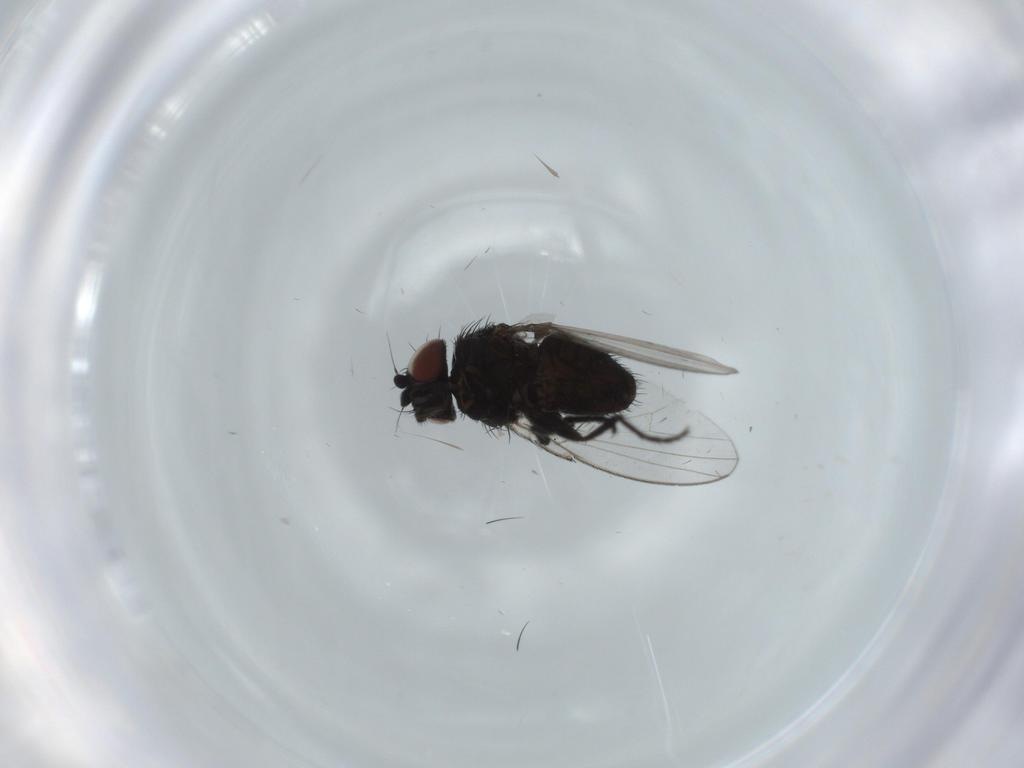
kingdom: Animalia
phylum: Arthropoda
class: Insecta
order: Diptera
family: Milichiidae
